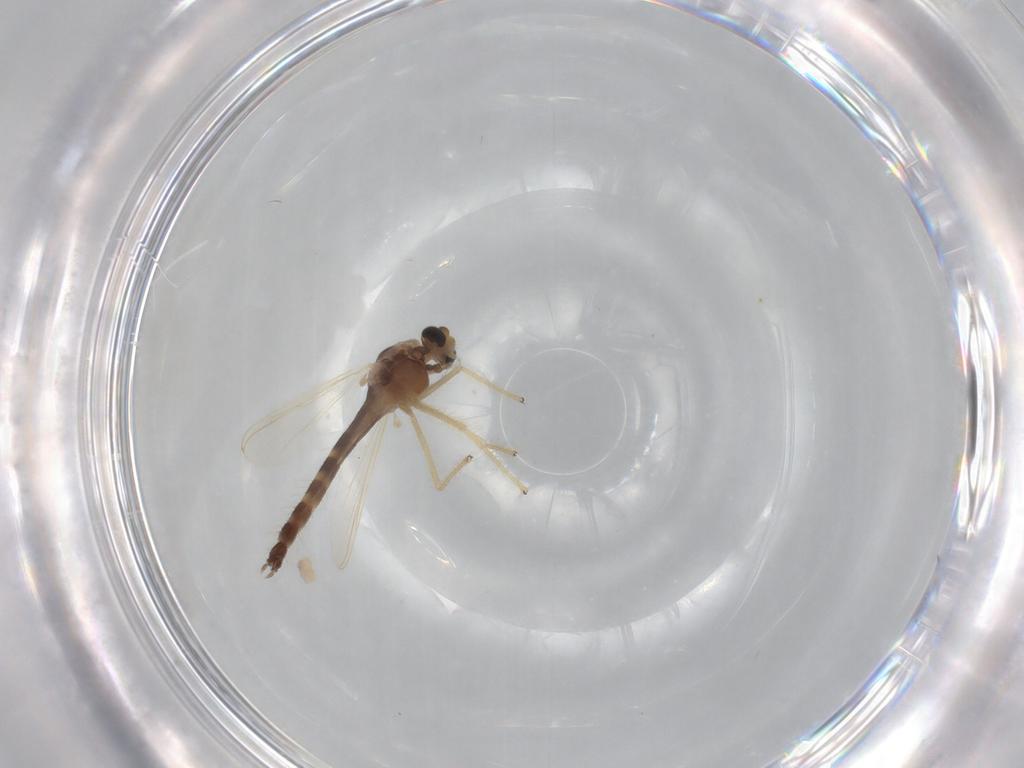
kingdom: Animalia
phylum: Arthropoda
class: Insecta
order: Diptera
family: Chironomidae
